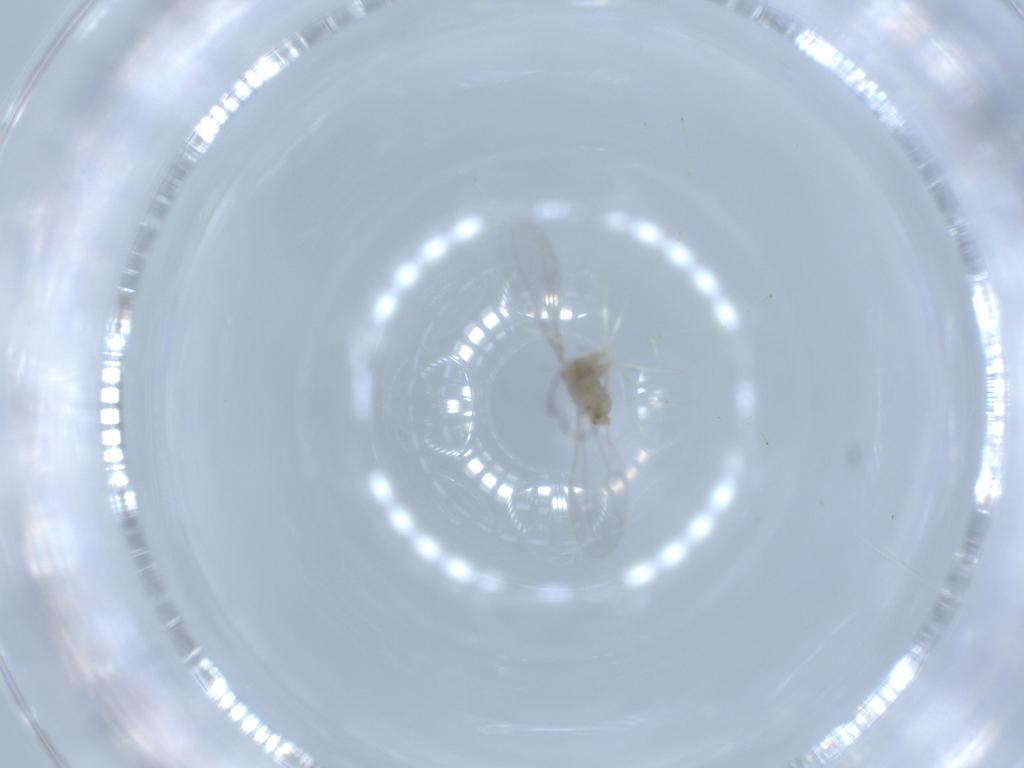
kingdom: Animalia
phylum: Arthropoda
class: Insecta
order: Diptera
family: Cecidomyiidae
